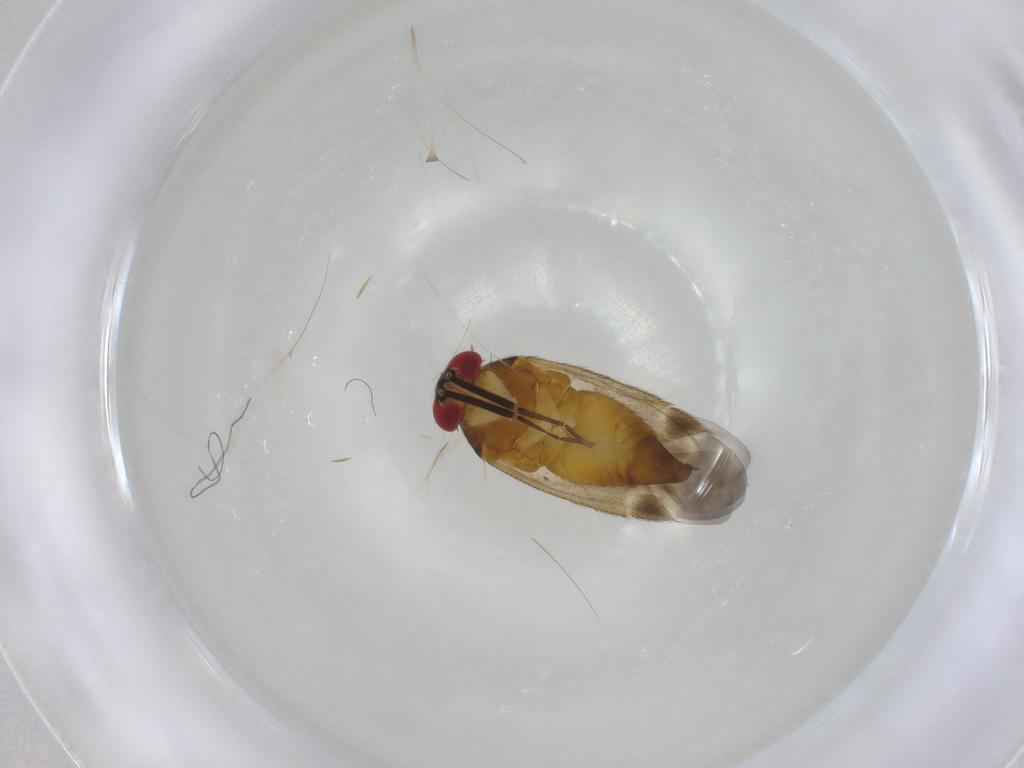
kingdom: Animalia
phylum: Arthropoda
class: Insecta
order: Hemiptera
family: Miridae
